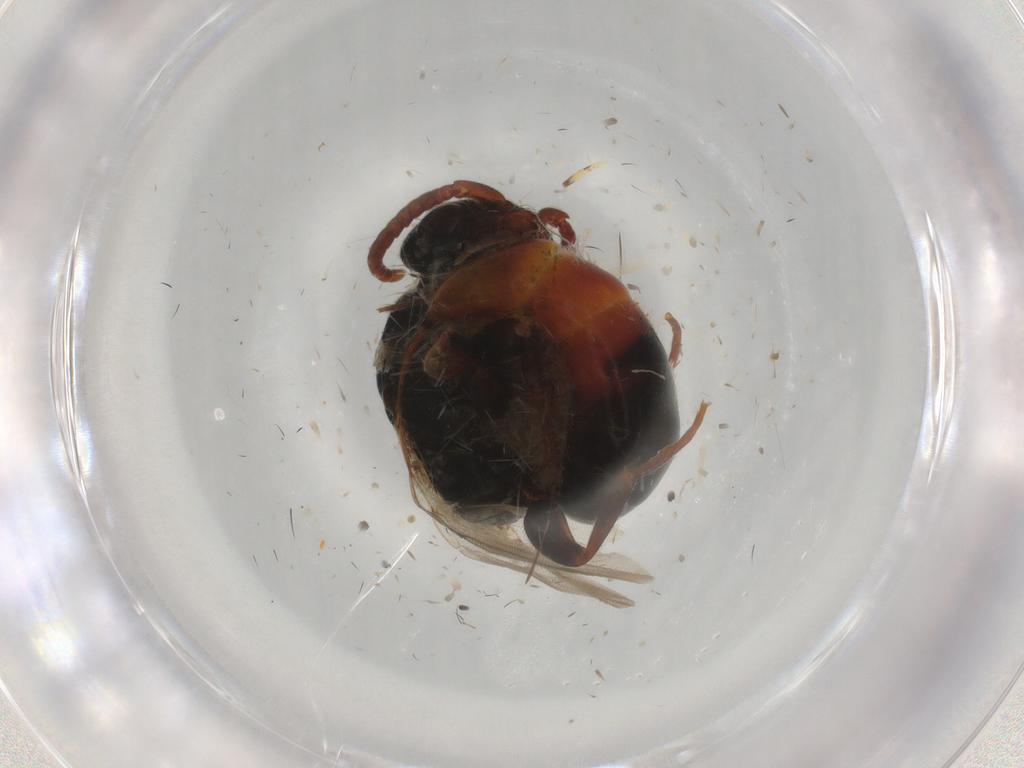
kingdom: Animalia
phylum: Arthropoda
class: Insecta
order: Hymenoptera
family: Bethylidae
